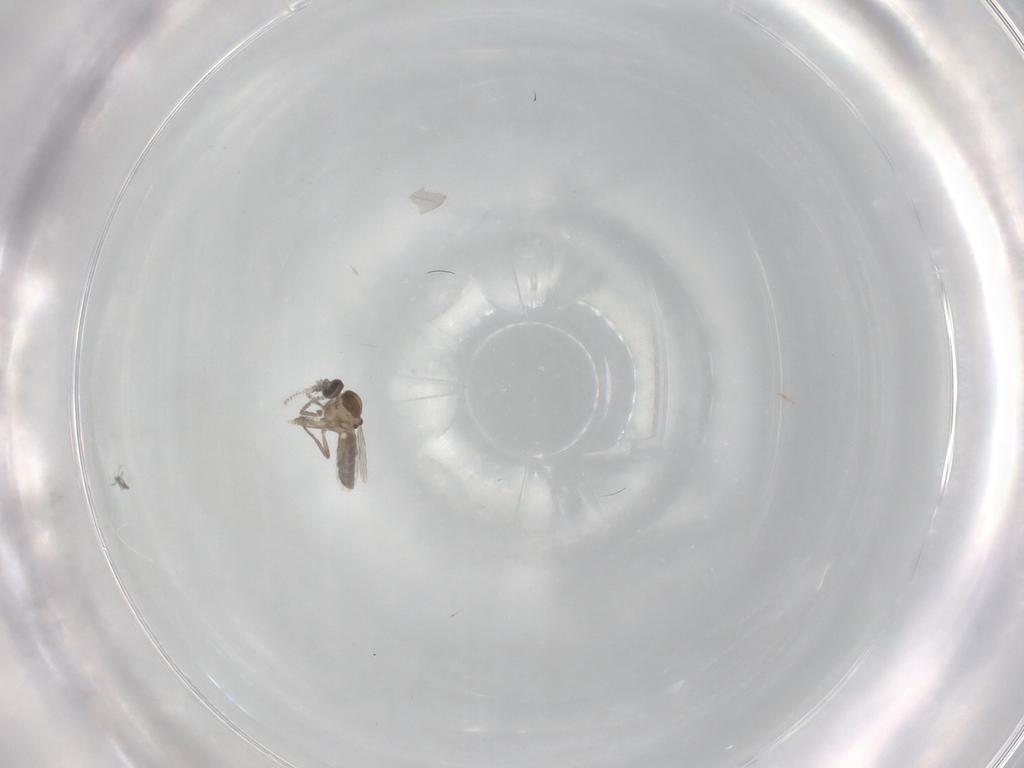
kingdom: Animalia
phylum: Arthropoda
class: Insecta
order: Diptera
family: Ceratopogonidae
